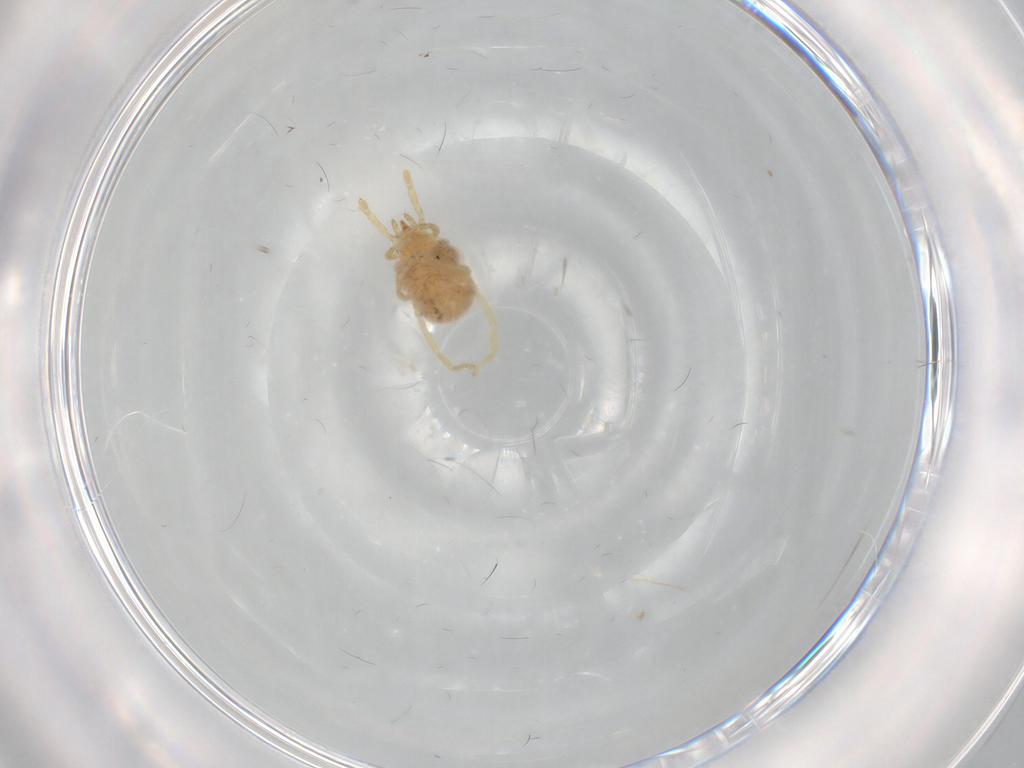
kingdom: Animalia
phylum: Arthropoda
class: Arachnida
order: Trombidiformes
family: Erythraeidae
